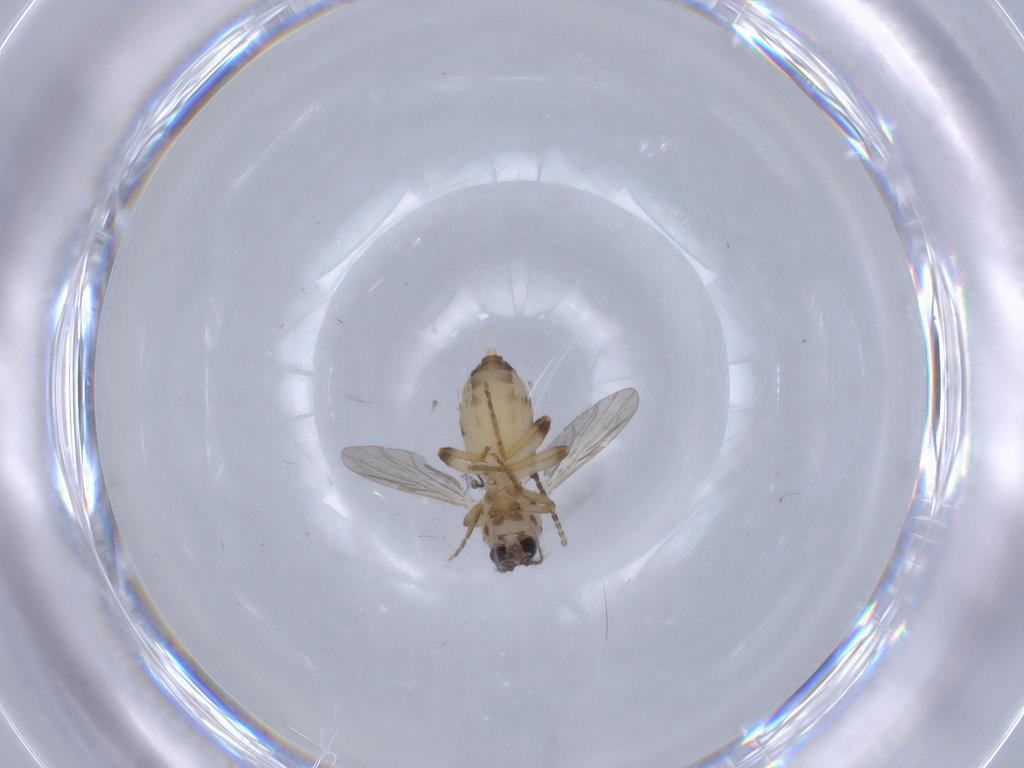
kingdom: Animalia
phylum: Arthropoda
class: Insecta
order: Diptera
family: Ceratopogonidae
